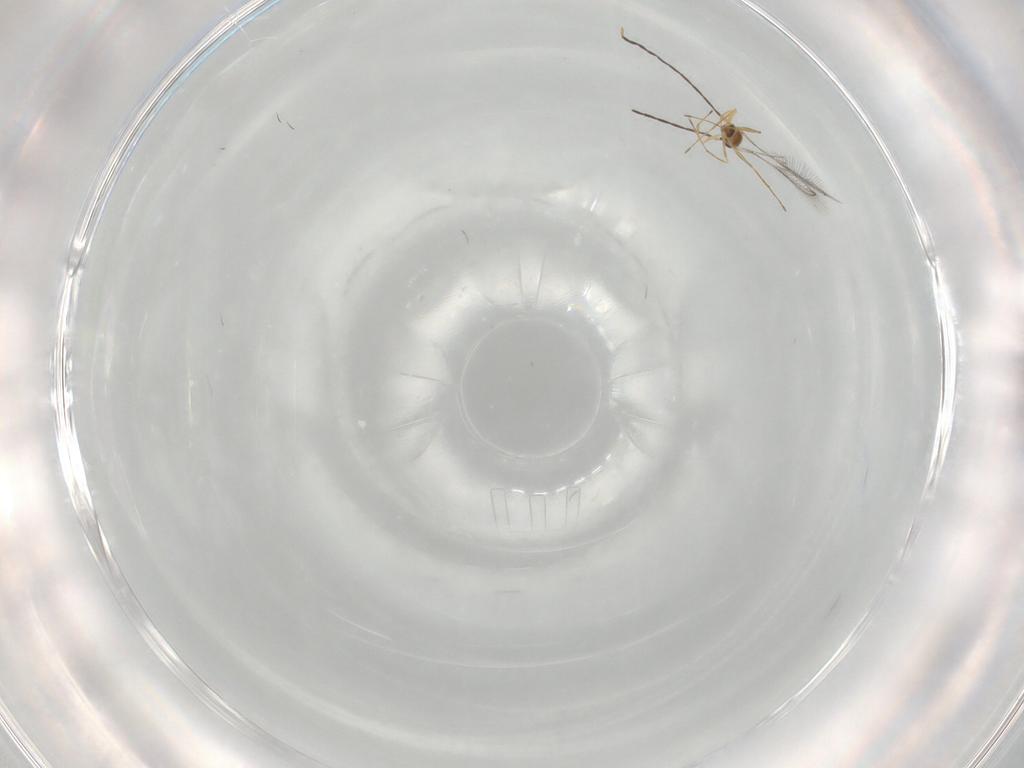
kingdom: Animalia
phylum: Arthropoda
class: Insecta
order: Hymenoptera
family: Mymaridae
